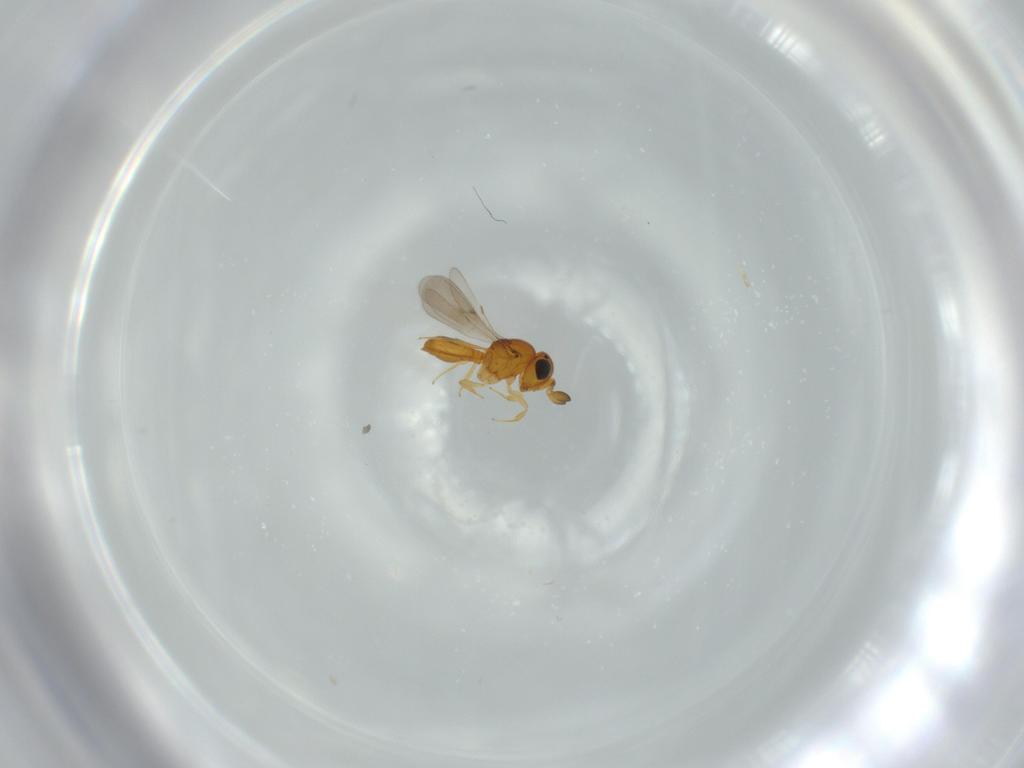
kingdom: Animalia
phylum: Arthropoda
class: Insecta
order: Hymenoptera
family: Scelionidae
